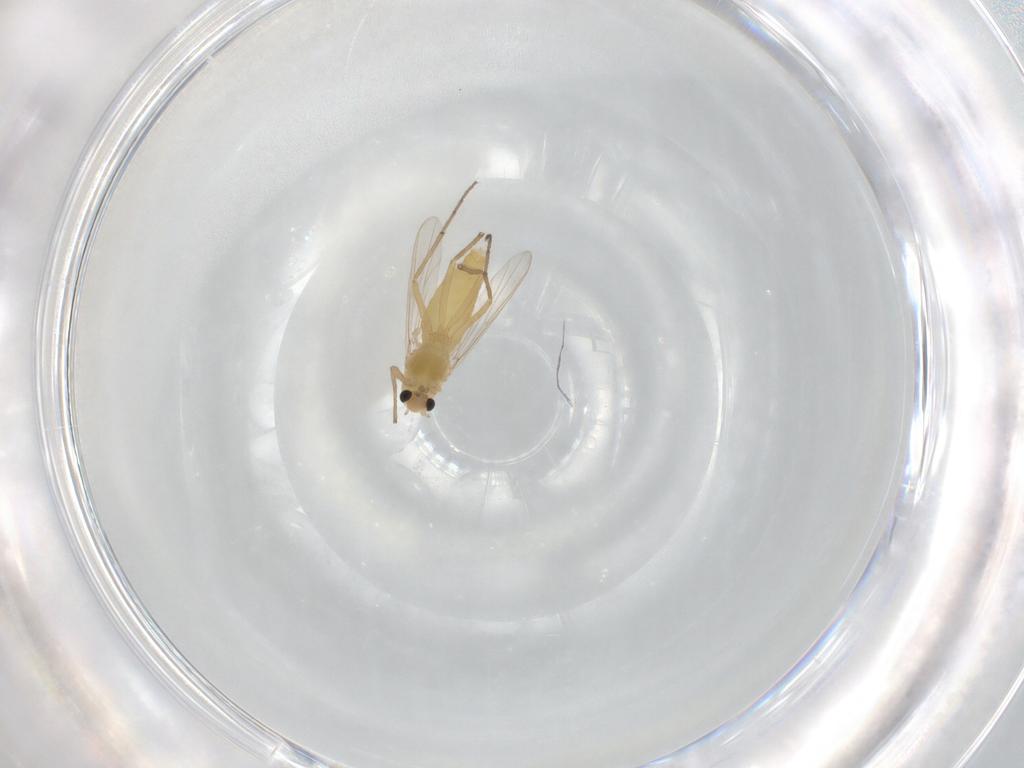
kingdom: Animalia
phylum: Arthropoda
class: Insecta
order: Diptera
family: Chironomidae
